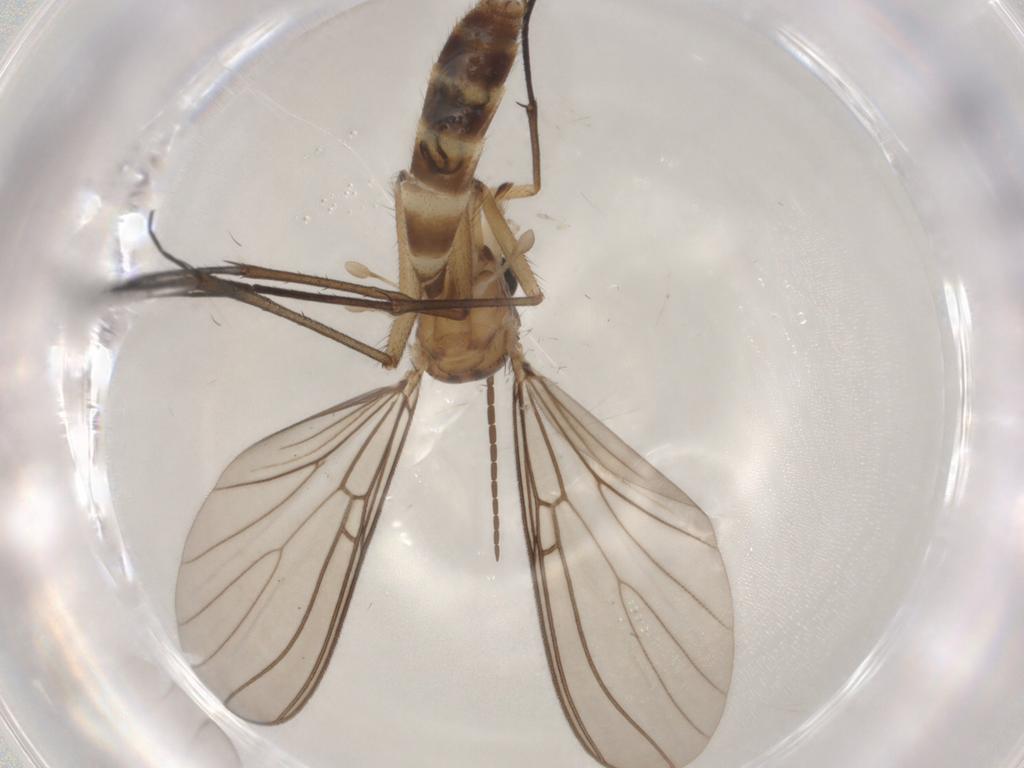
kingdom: Animalia
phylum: Arthropoda
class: Insecta
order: Diptera
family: Mycetophilidae
